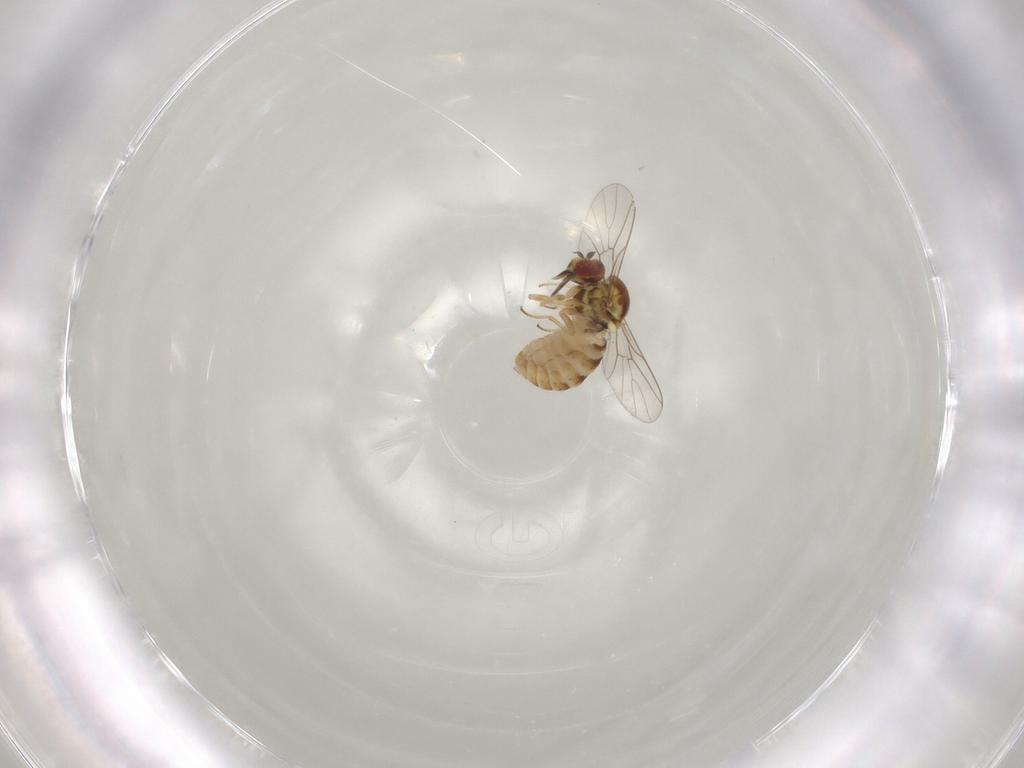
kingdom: Animalia
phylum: Arthropoda
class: Insecta
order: Diptera
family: Mythicomyiidae
